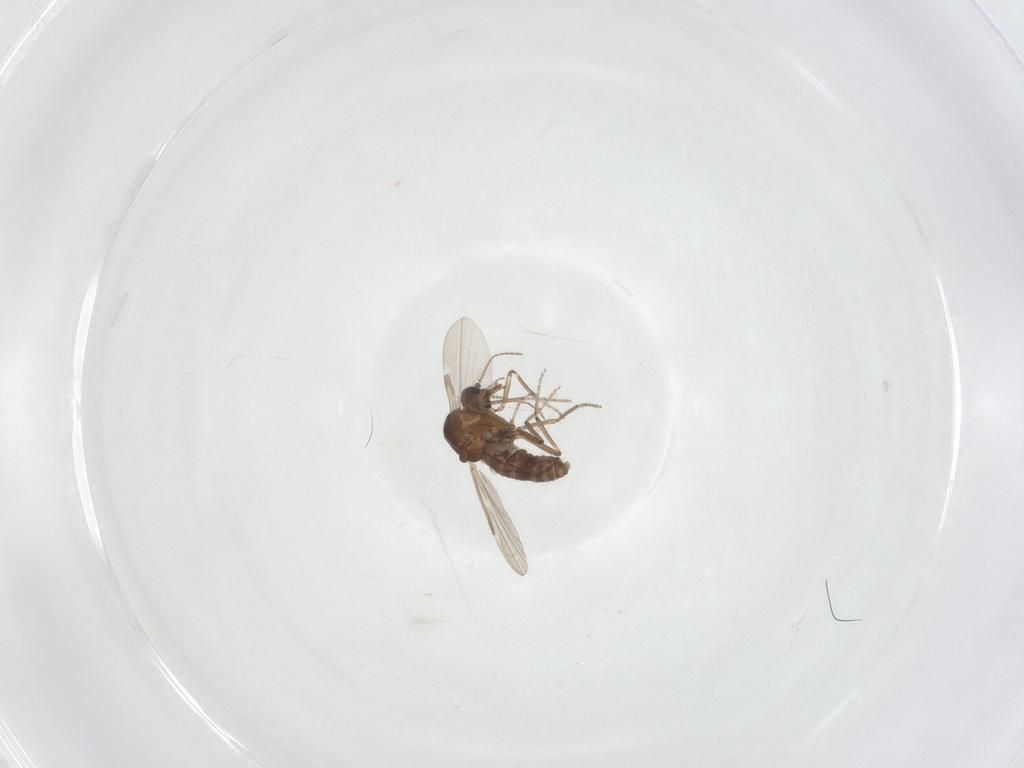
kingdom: Animalia
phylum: Arthropoda
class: Insecta
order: Diptera
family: Ceratopogonidae
